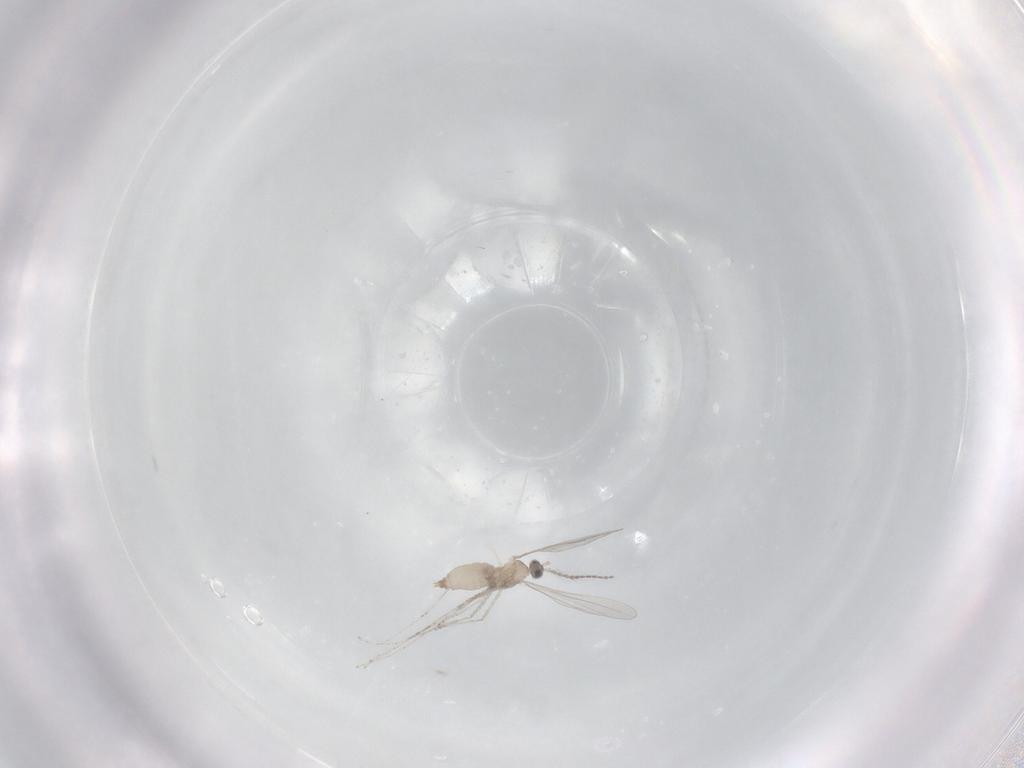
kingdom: Animalia
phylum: Arthropoda
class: Insecta
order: Diptera
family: Cecidomyiidae
